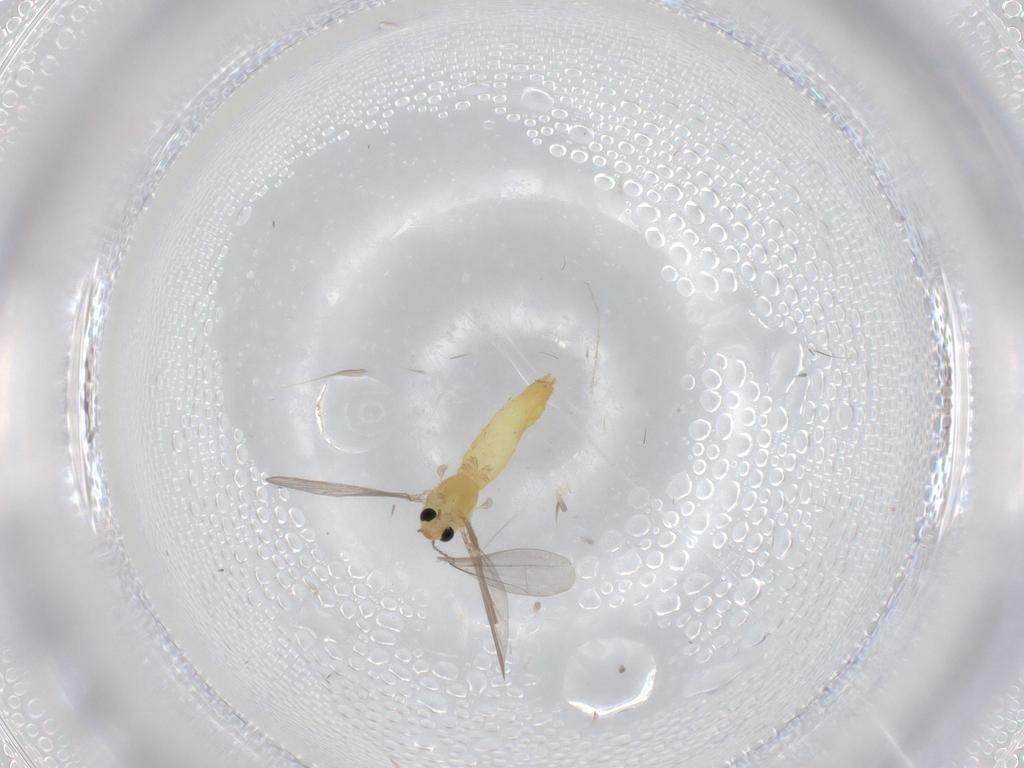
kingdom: Animalia
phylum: Arthropoda
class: Insecta
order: Diptera
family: Chironomidae
